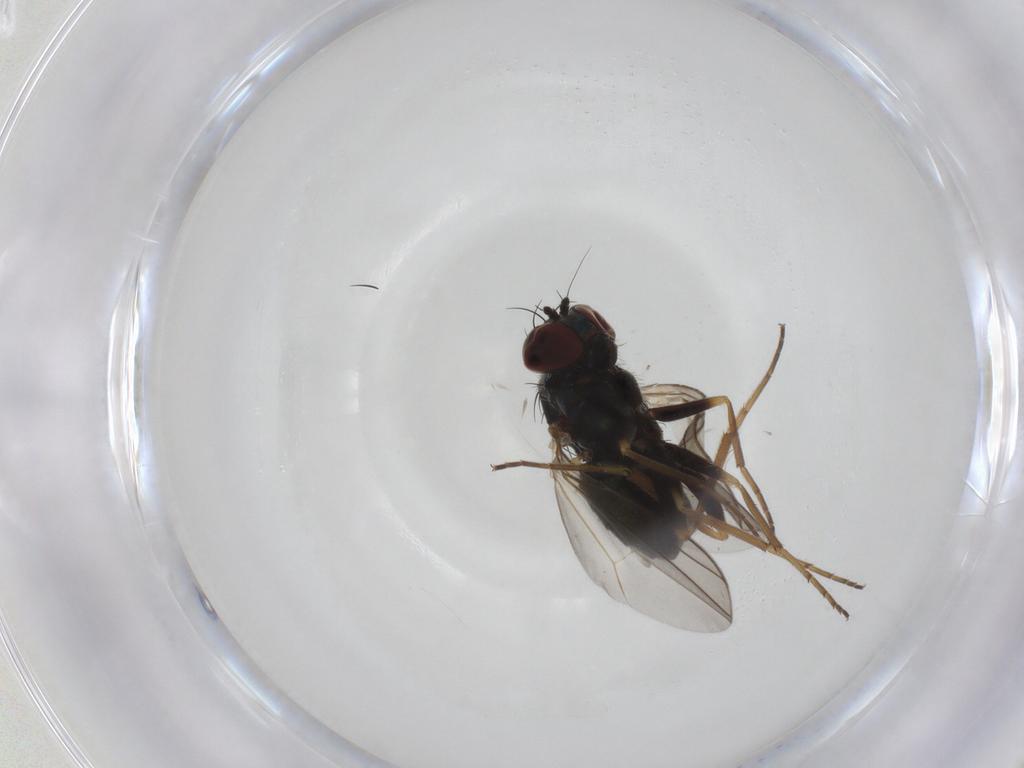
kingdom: Animalia
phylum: Arthropoda
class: Insecta
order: Diptera
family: Dolichopodidae
